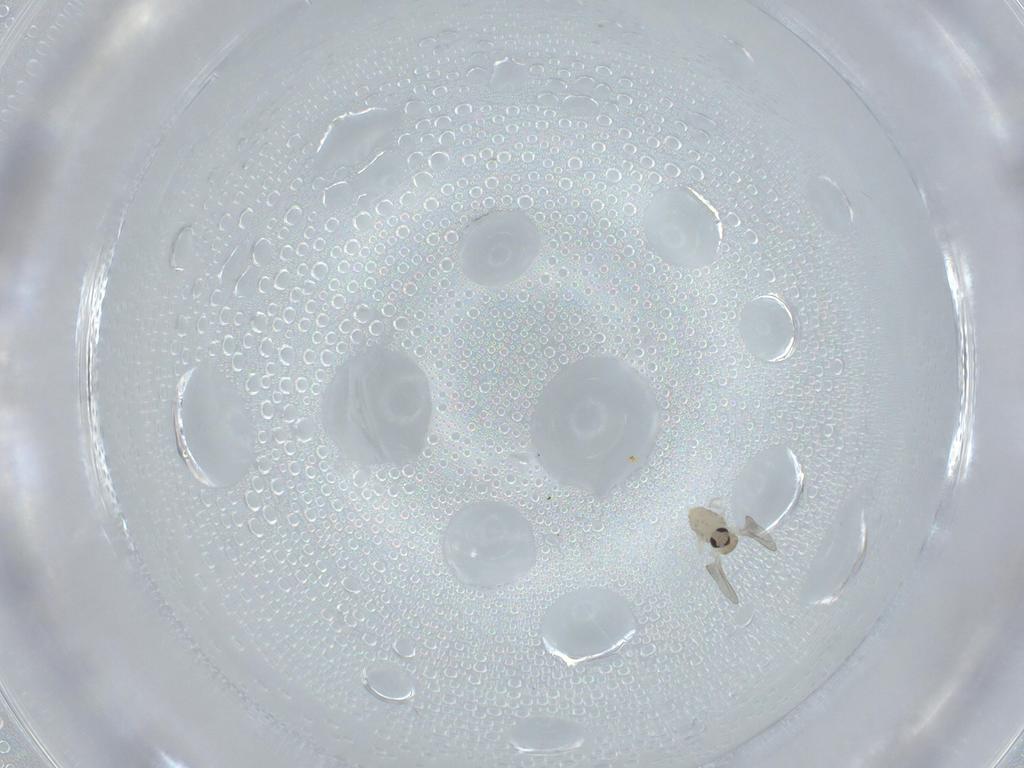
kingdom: Animalia
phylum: Arthropoda
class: Insecta
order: Diptera
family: Cecidomyiidae
